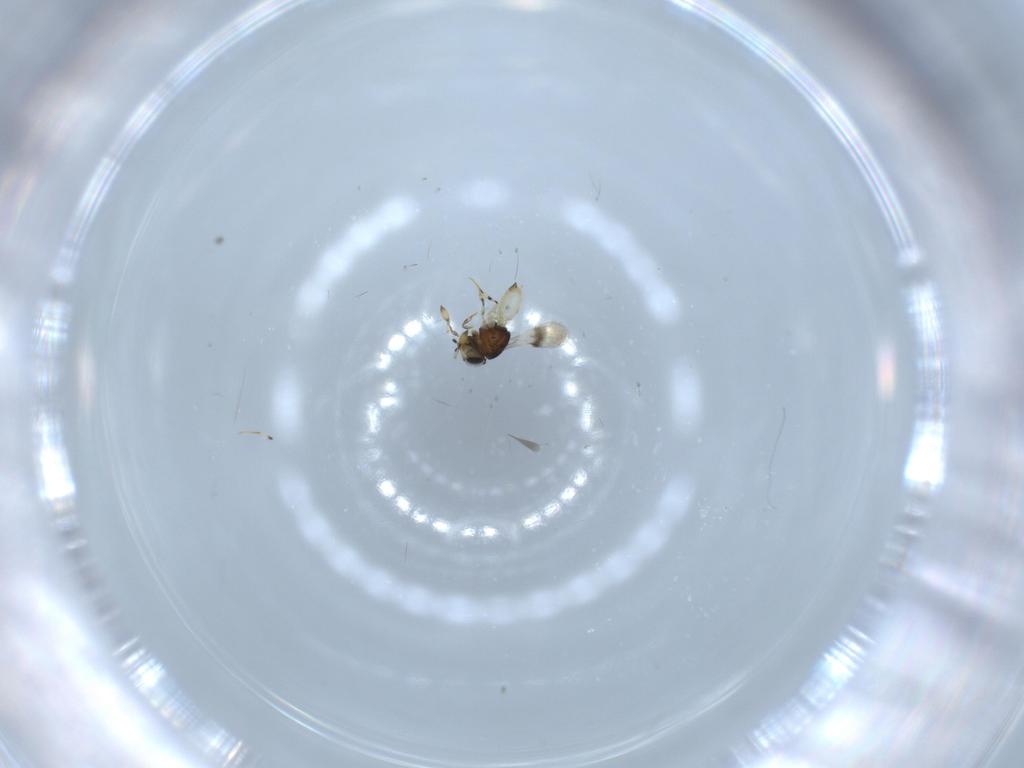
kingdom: Animalia
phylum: Arthropoda
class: Insecta
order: Hymenoptera
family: Scelionidae
